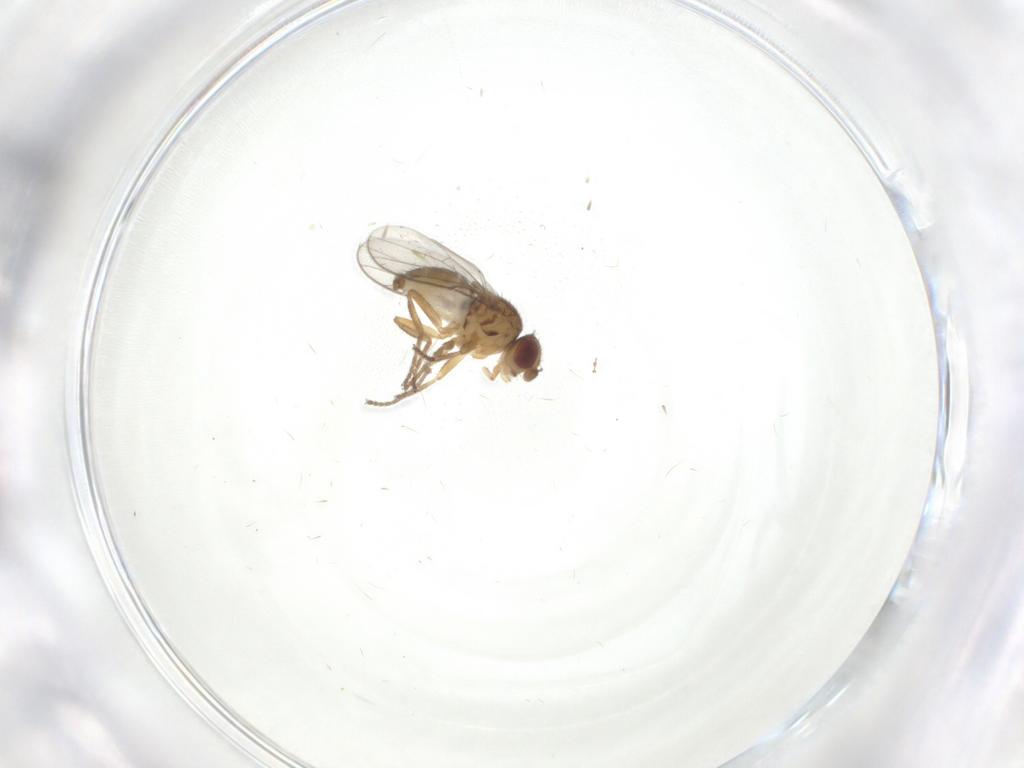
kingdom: Animalia
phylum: Arthropoda
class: Insecta
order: Diptera
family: Chloropidae
